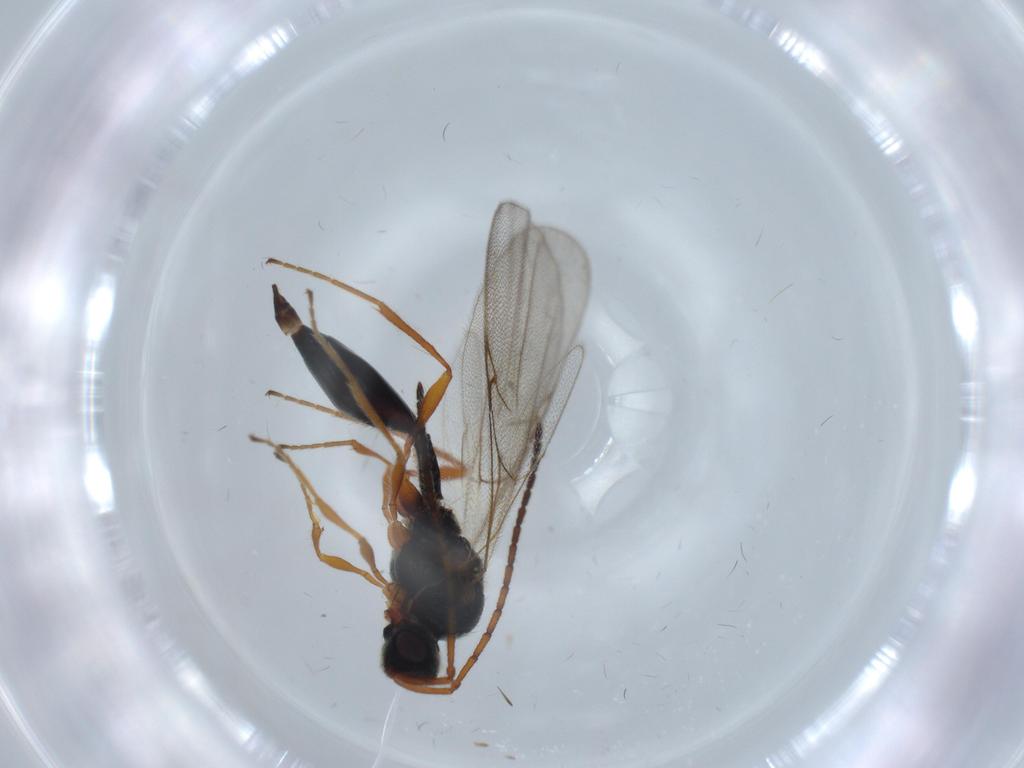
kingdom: Animalia
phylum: Arthropoda
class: Insecta
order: Hymenoptera
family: Diapriidae
